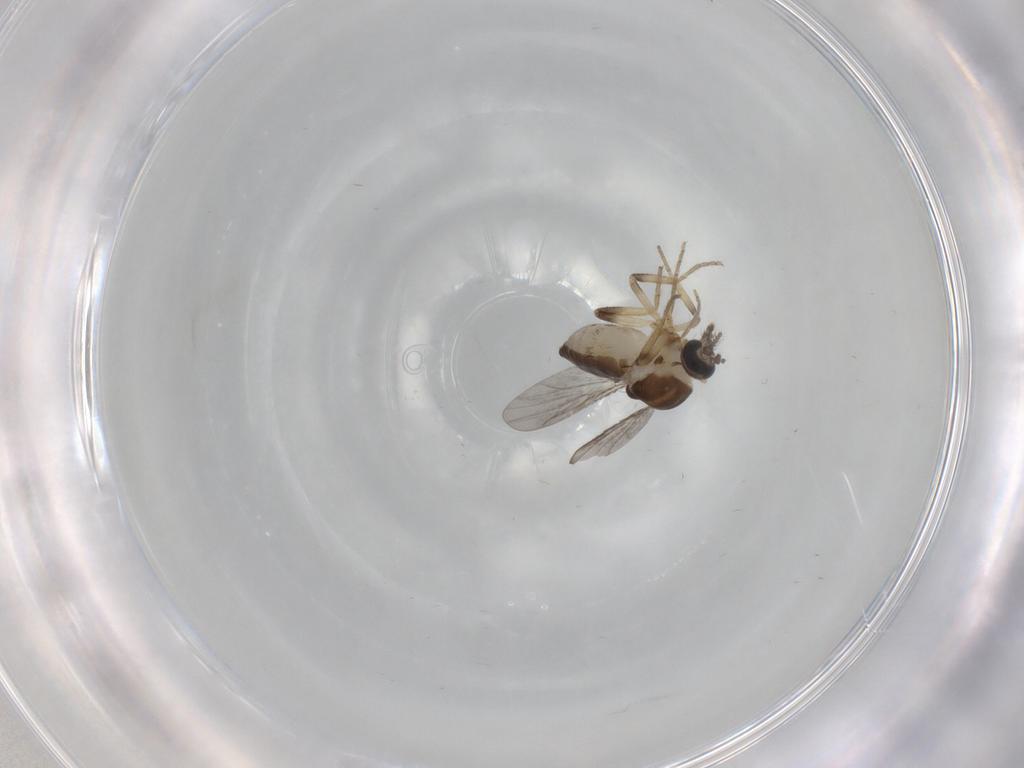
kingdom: Animalia
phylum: Arthropoda
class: Insecta
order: Diptera
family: Ceratopogonidae
